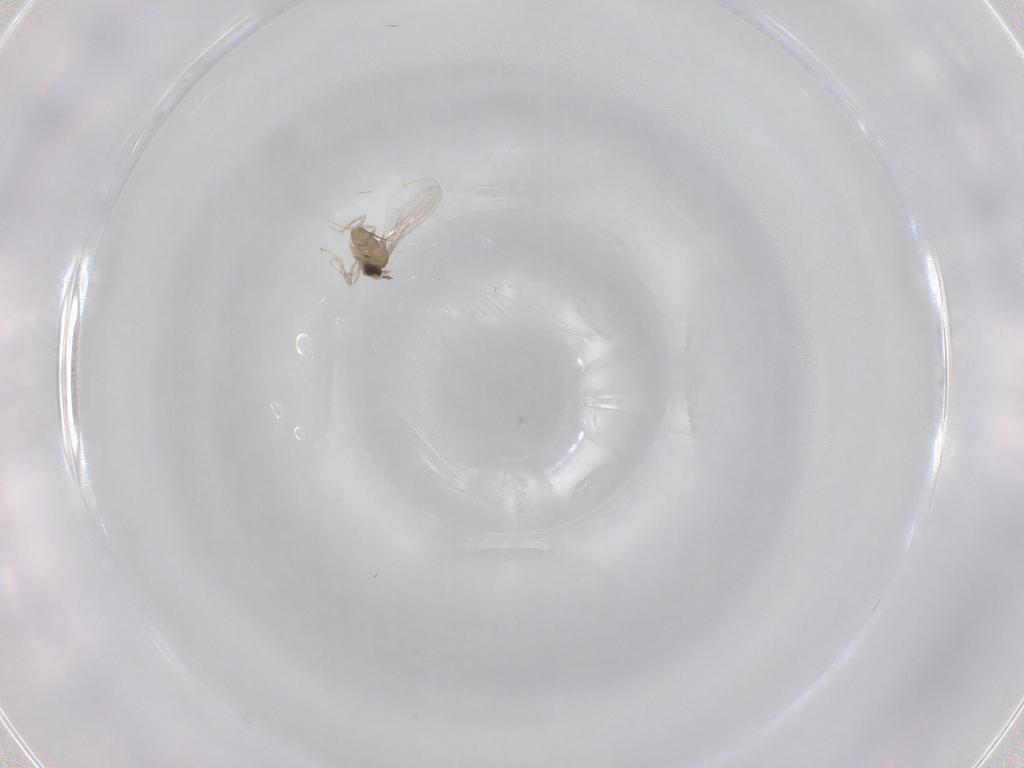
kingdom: Animalia
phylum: Arthropoda
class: Insecta
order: Diptera
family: Cecidomyiidae
